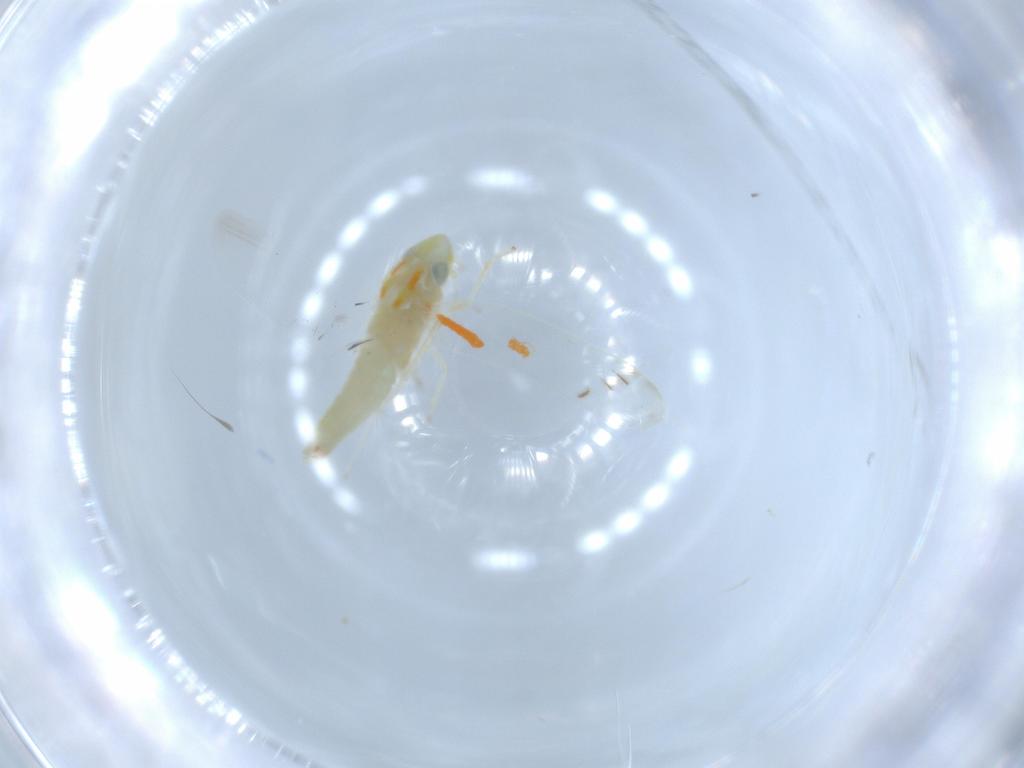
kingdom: Animalia
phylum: Arthropoda
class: Insecta
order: Hemiptera
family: Cicadellidae
